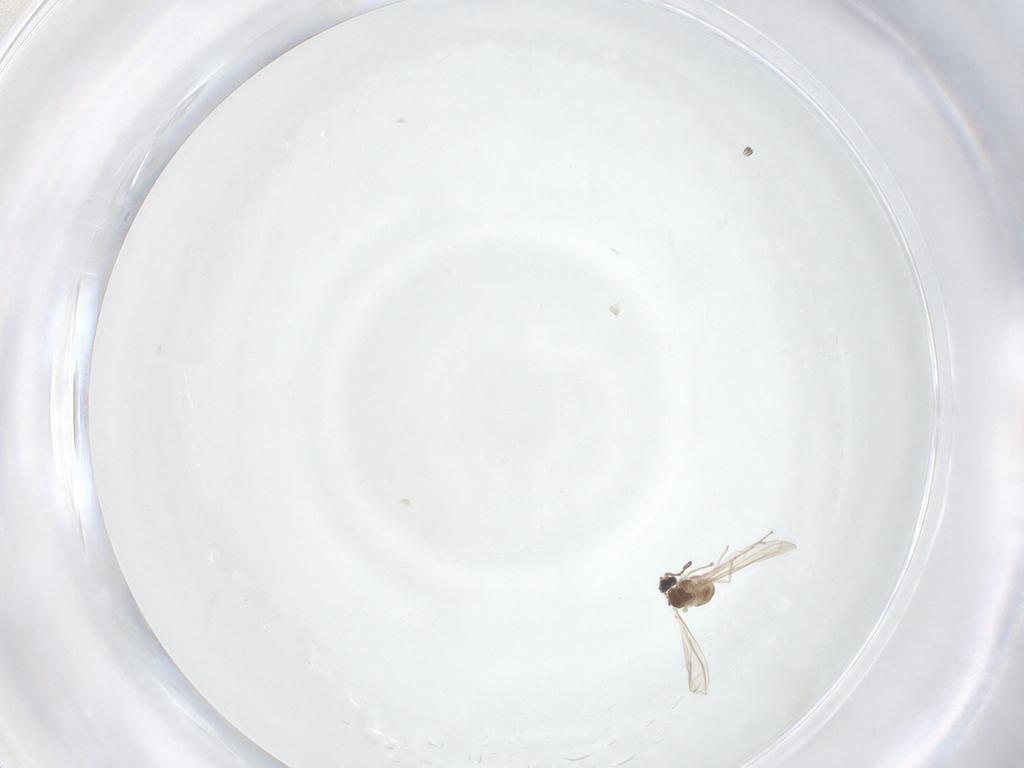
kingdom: Animalia
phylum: Arthropoda
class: Insecta
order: Diptera
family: Cecidomyiidae
